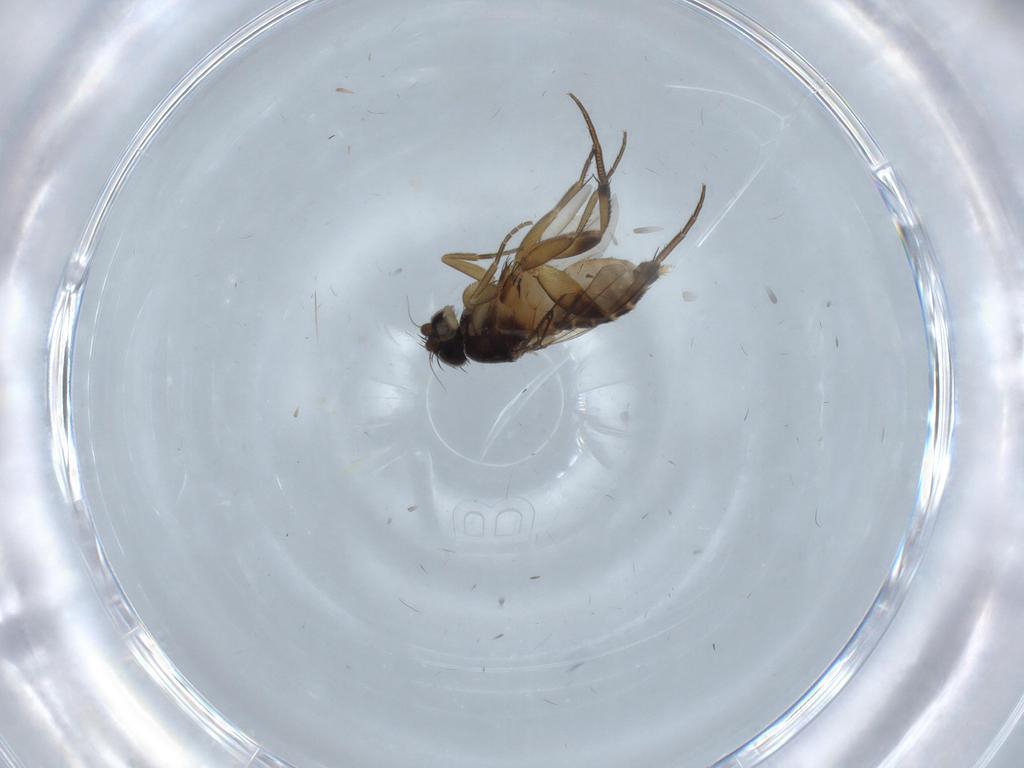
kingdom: Animalia
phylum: Arthropoda
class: Insecta
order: Diptera
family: Phoridae
